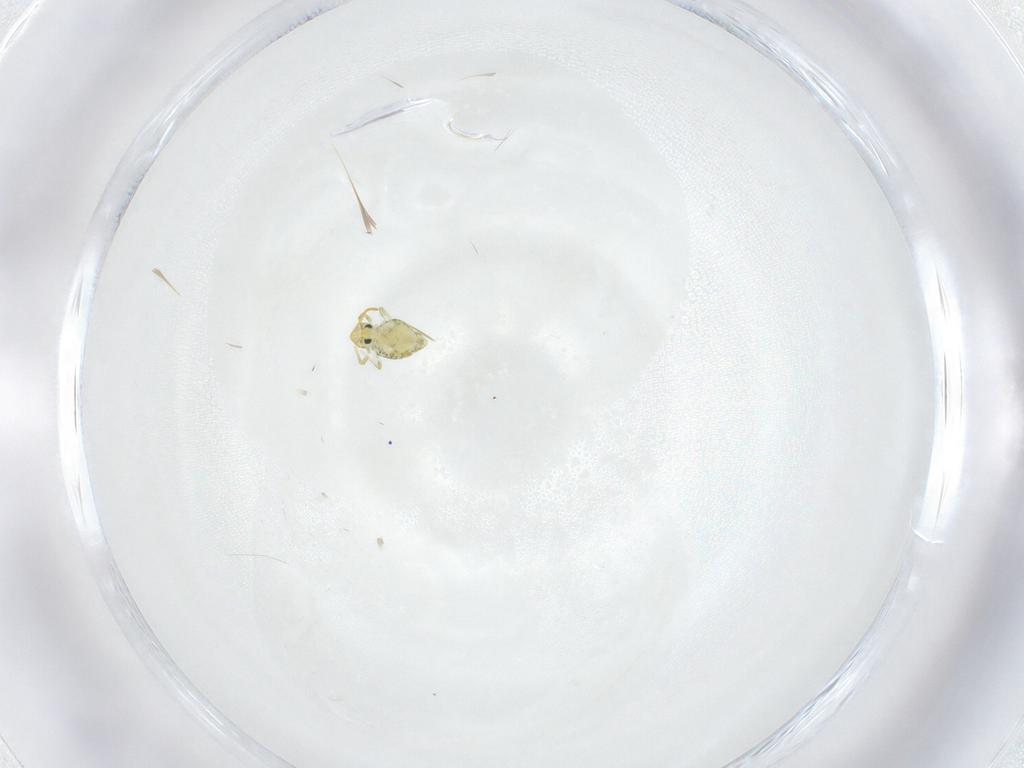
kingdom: Animalia
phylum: Arthropoda
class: Collembola
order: Symphypleona
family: Katiannidae
